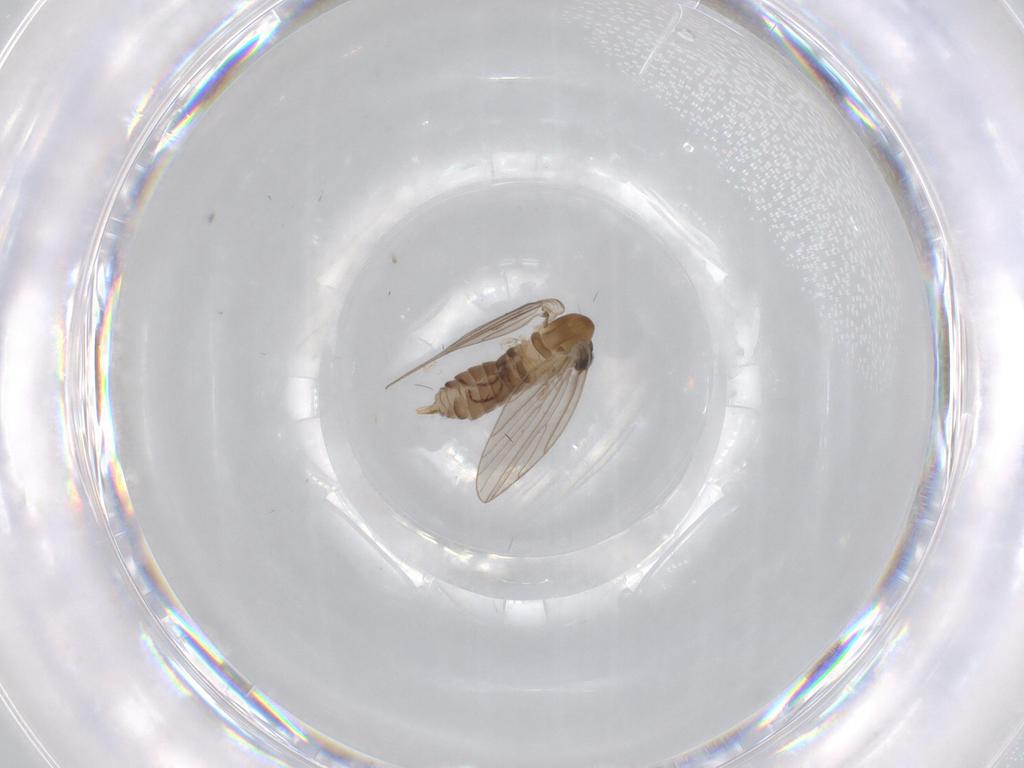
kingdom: Animalia
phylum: Arthropoda
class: Insecta
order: Diptera
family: Psychodidae
